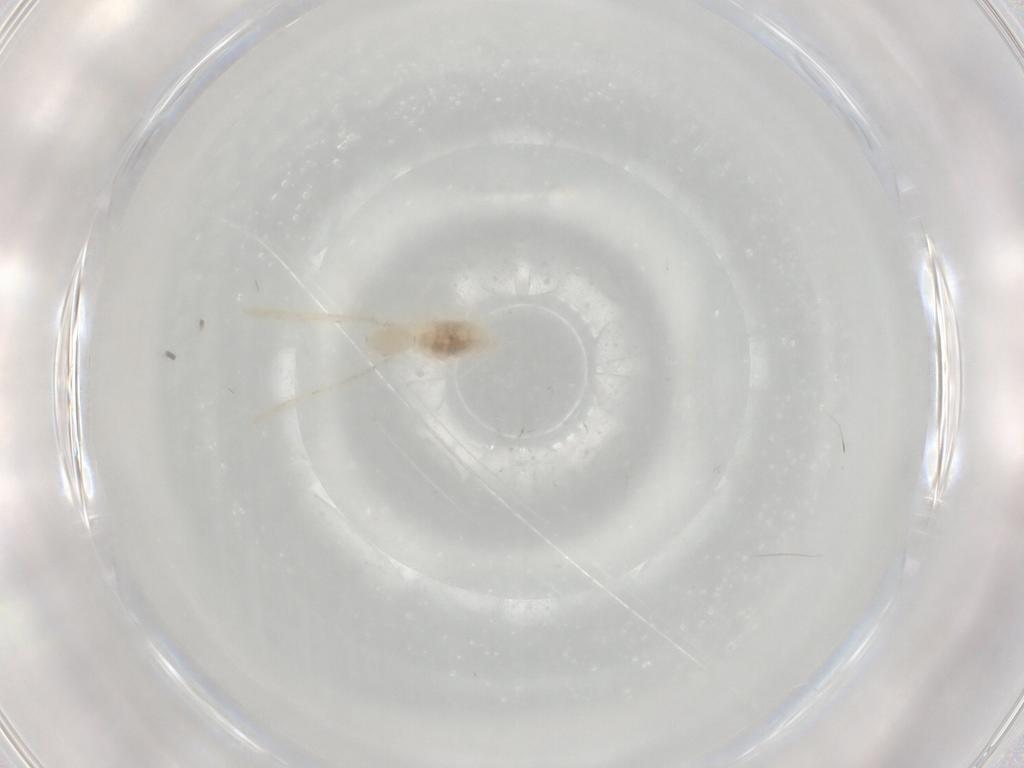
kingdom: Animalia
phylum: Arthropoda
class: Insecta
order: Diptera
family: Cecidomyiidae
